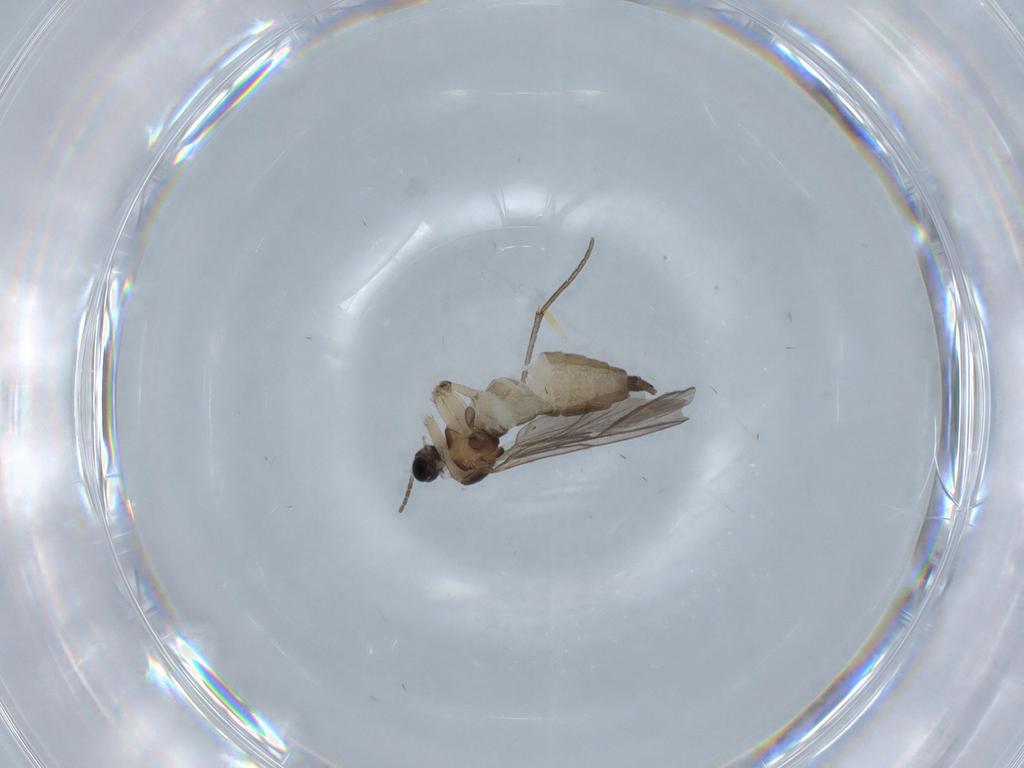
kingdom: Animalia
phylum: Arthropoda
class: Insecta
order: Diptera
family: Sciaridae
